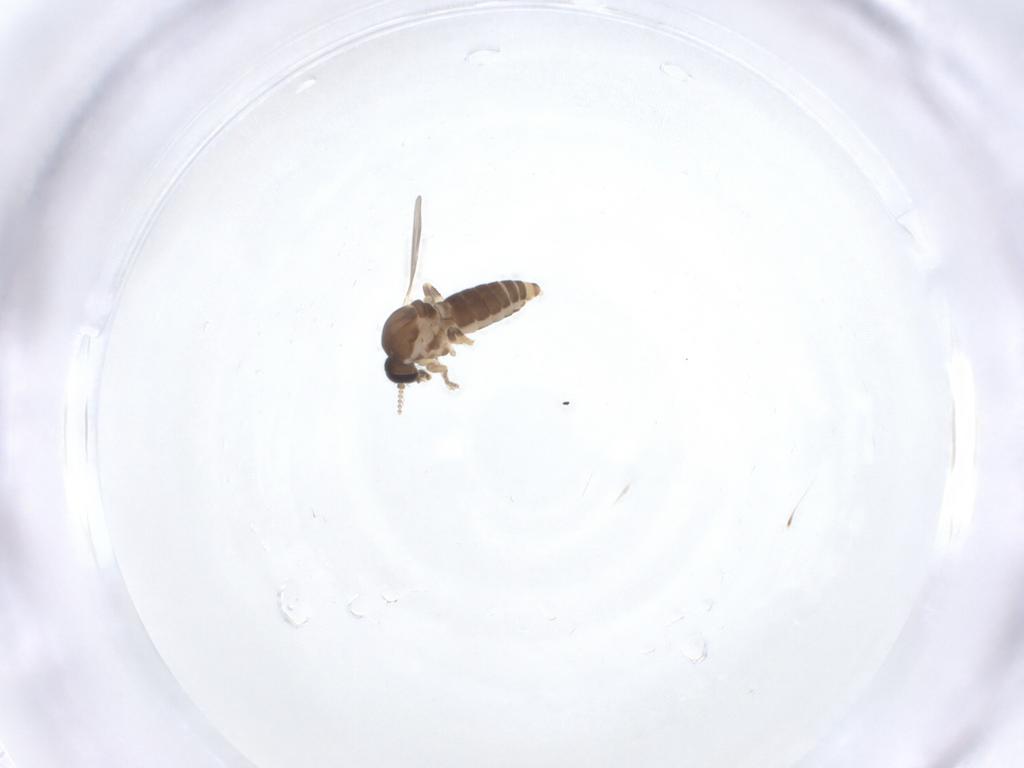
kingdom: Animalia
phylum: Arthropoda
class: Insecta
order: Diptera
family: Ceratopogonidae
